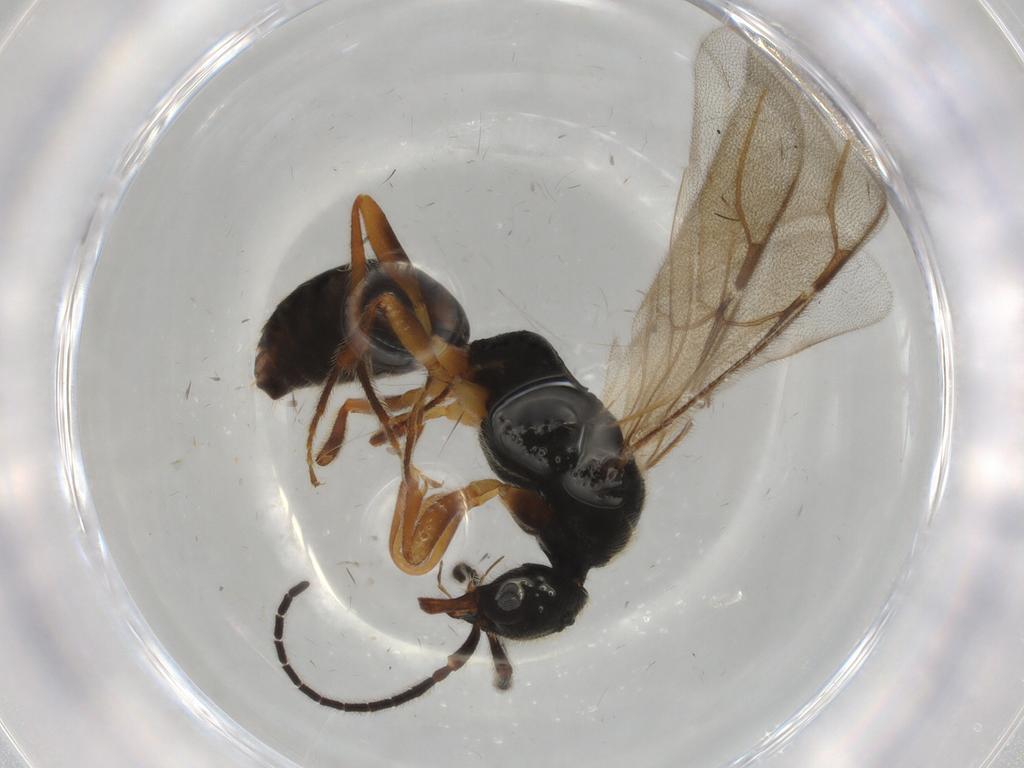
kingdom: Animalia
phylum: Arthropoda
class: Insecta
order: Hymenoptera
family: Bethylidae
